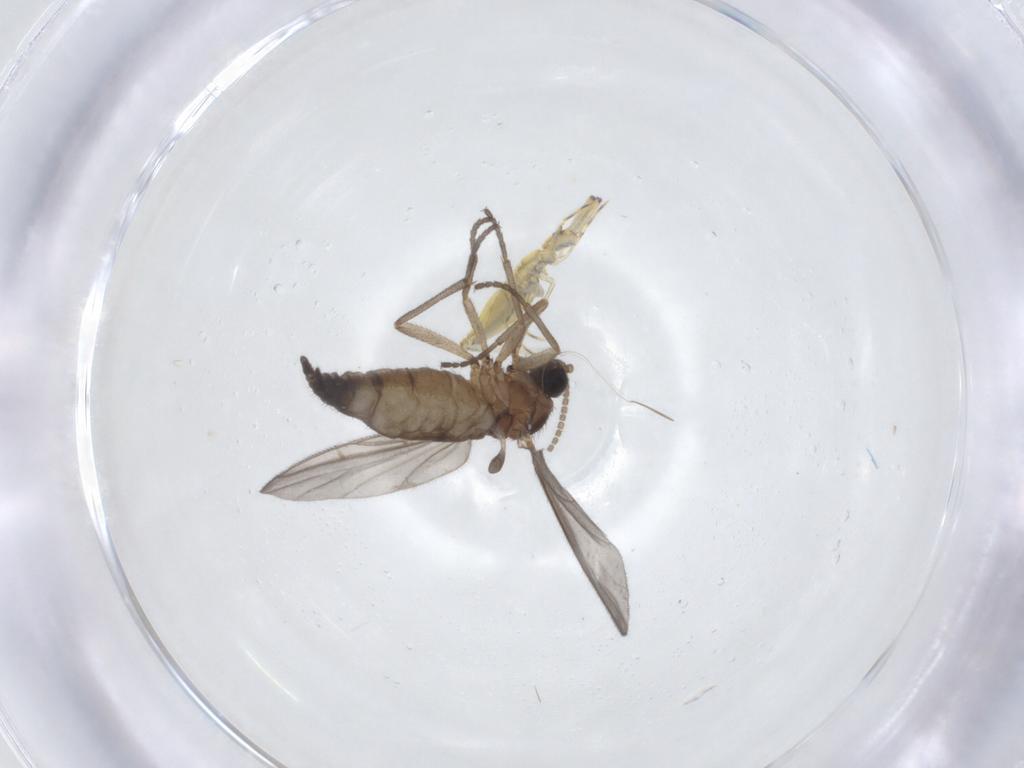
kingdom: Animalia
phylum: Arthropoda
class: Insecta
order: Diptera
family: Sciaridae
